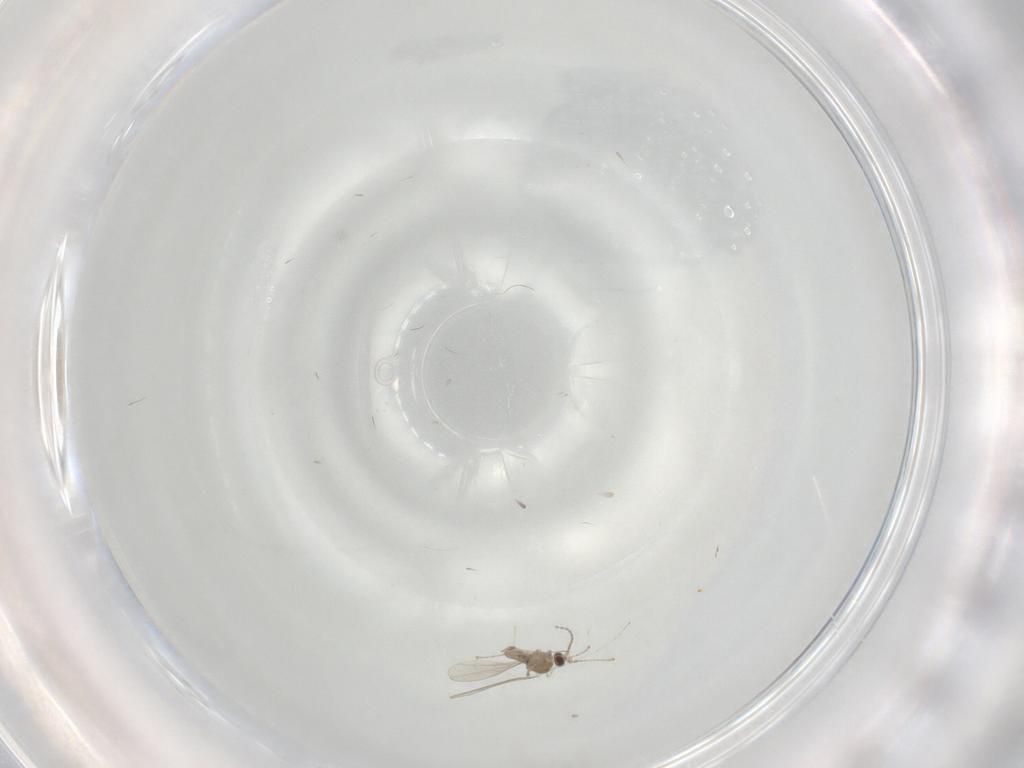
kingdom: Animalia
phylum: Arthropoda
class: Insecta
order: Diptera
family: Cecidomyiidae
